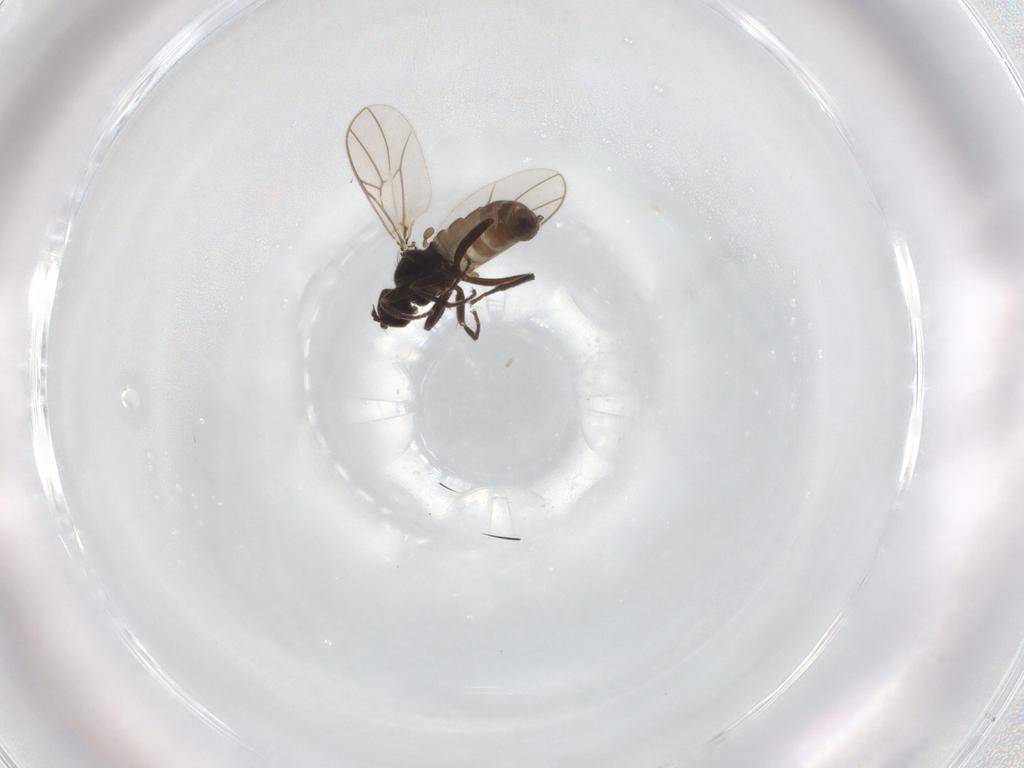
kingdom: Animalia
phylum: Arthropoda
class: Insecta
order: Diptera
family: Hybotidae
